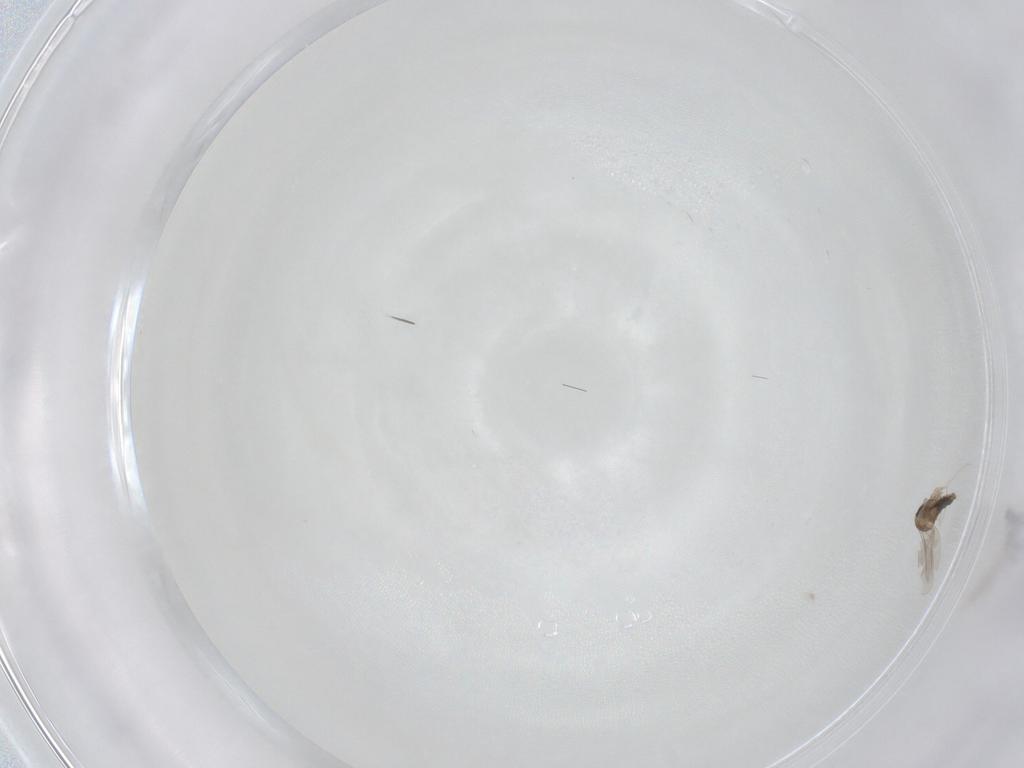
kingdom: Animalia
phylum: Arthropoda
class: Insecta
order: Diptera
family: Cecidomyiidae
